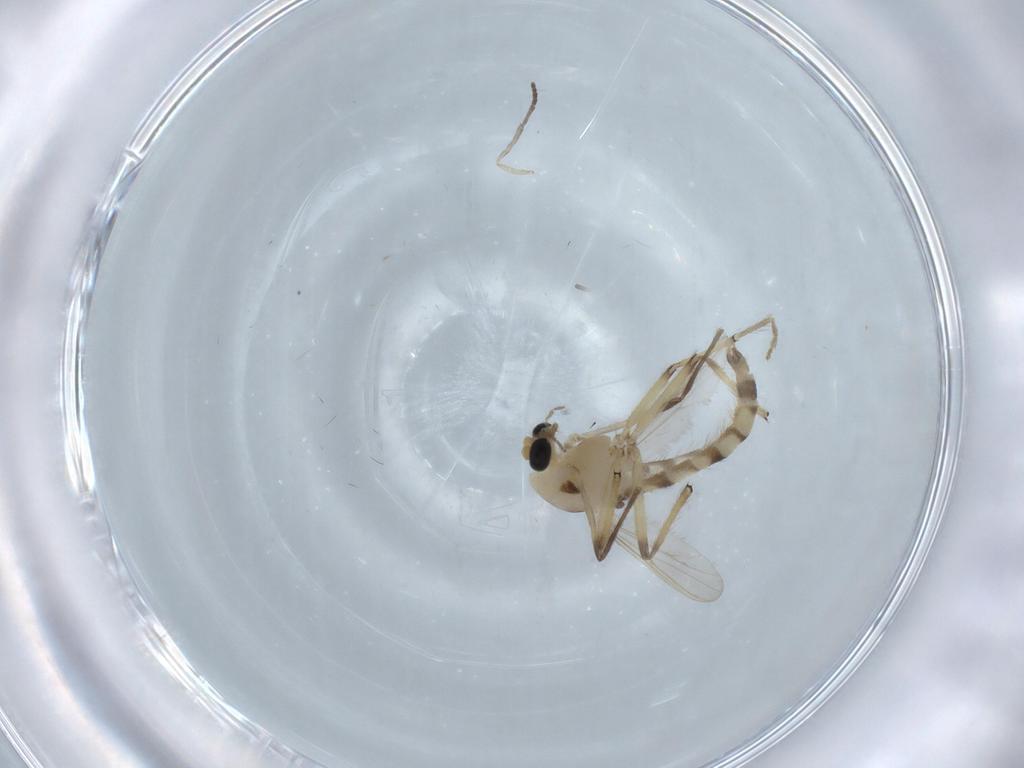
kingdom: Animalia
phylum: Arthropoda
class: Insecta
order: Diptera
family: Chironomidae
